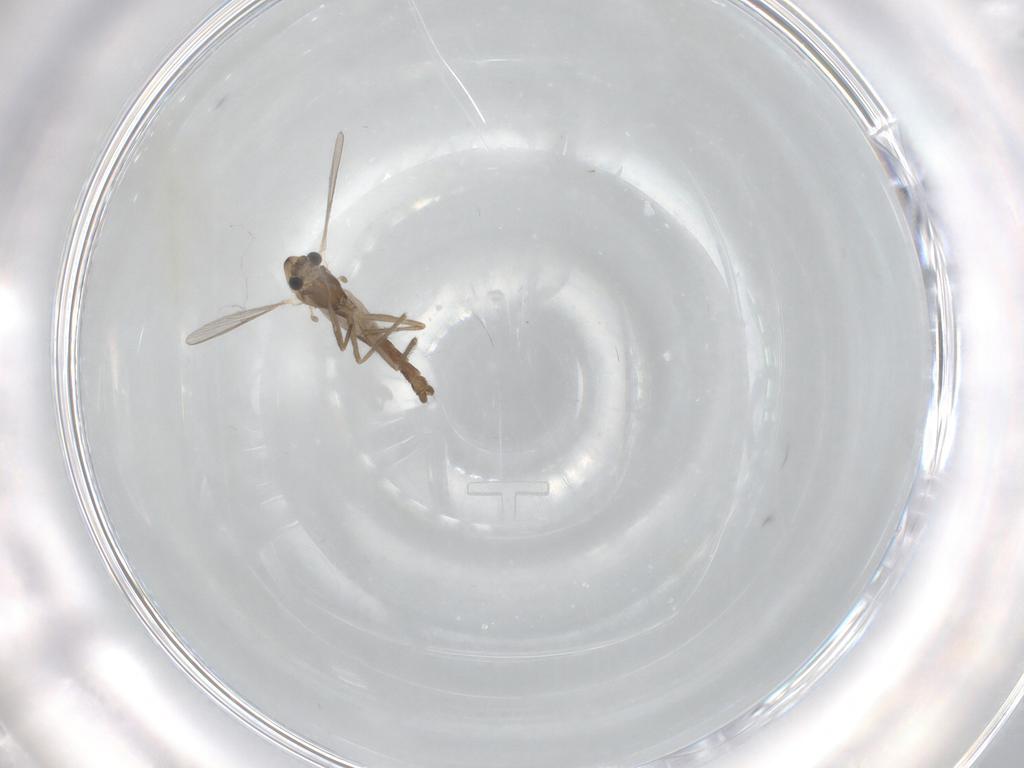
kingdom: Animalia
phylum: Arthropoda
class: Insecta
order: Diptera
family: Chironomidae
